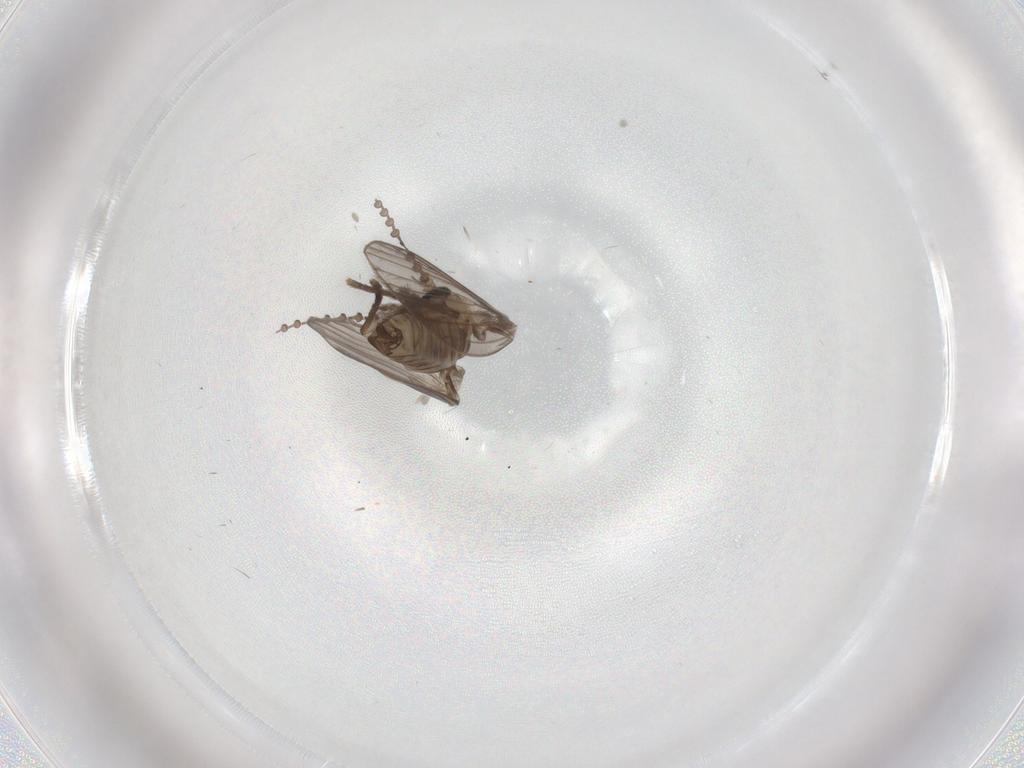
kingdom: Animalia
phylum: Arthropoda
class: Insecta
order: Diptera
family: Psychodidae
